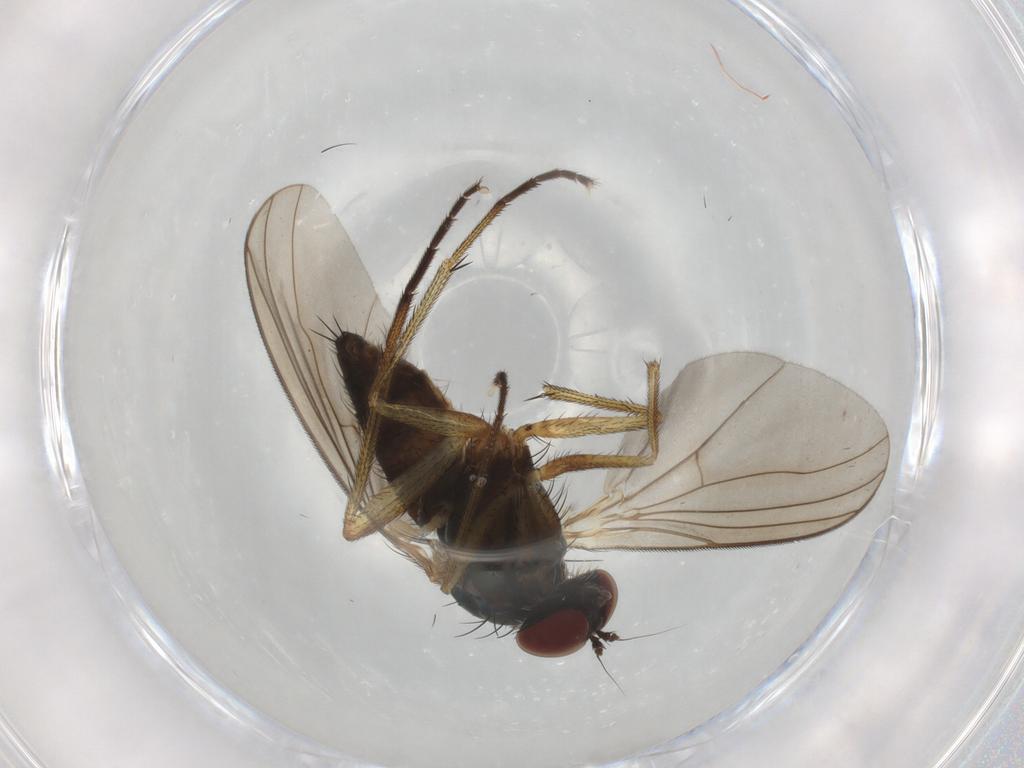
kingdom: Animalia
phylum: Arthropoda
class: Insecta
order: Diptera
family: Dolichopodidae
